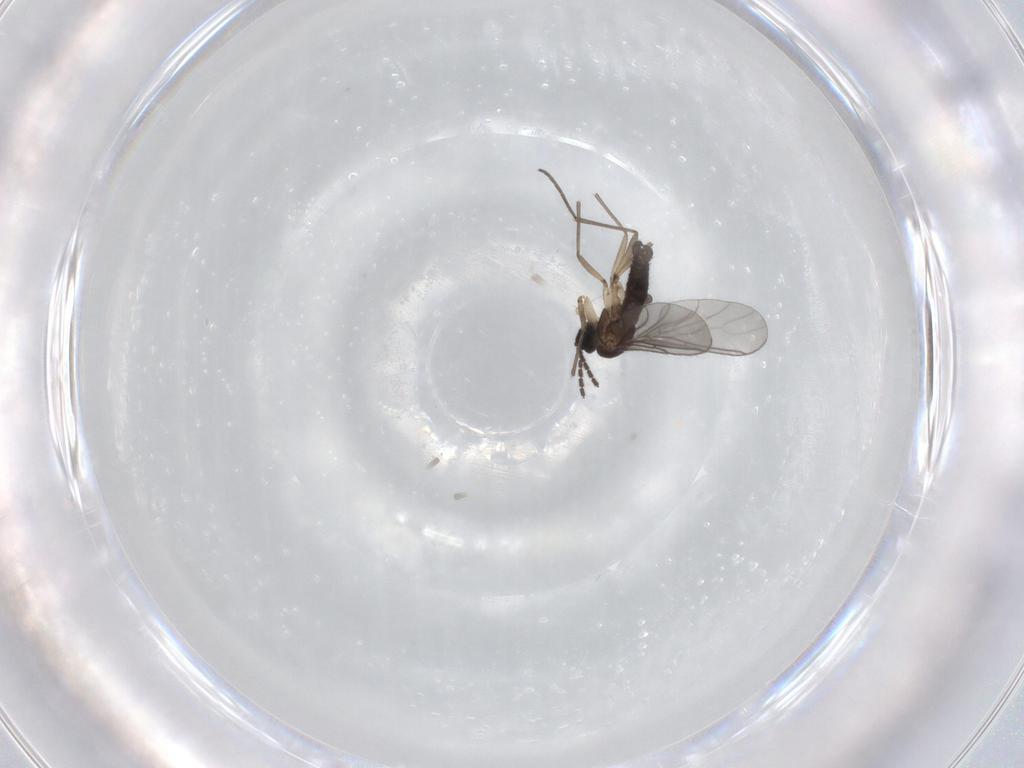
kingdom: Animalia
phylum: Arthropoda
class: Insecta
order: Diptera
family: Sciaridae
